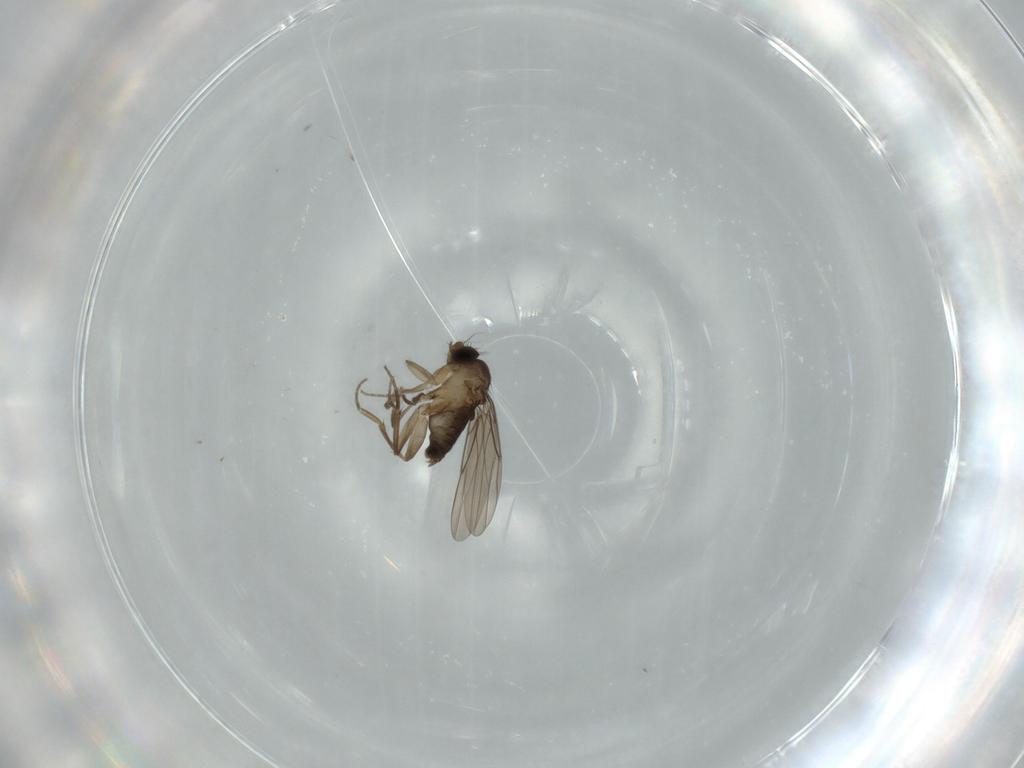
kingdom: Animalia
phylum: Arthropoda
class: Insecta
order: Diptera
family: Phoridae
